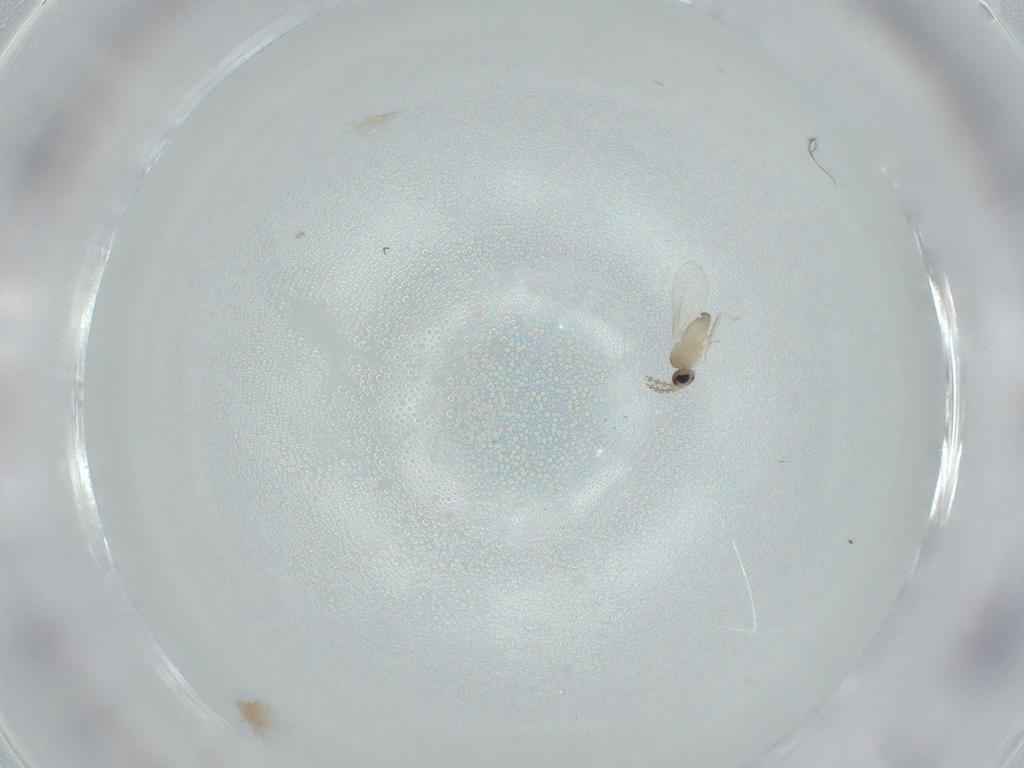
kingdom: Animalia
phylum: Arthropoda
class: Insecta
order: Diptera
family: Cecidomyiidae
